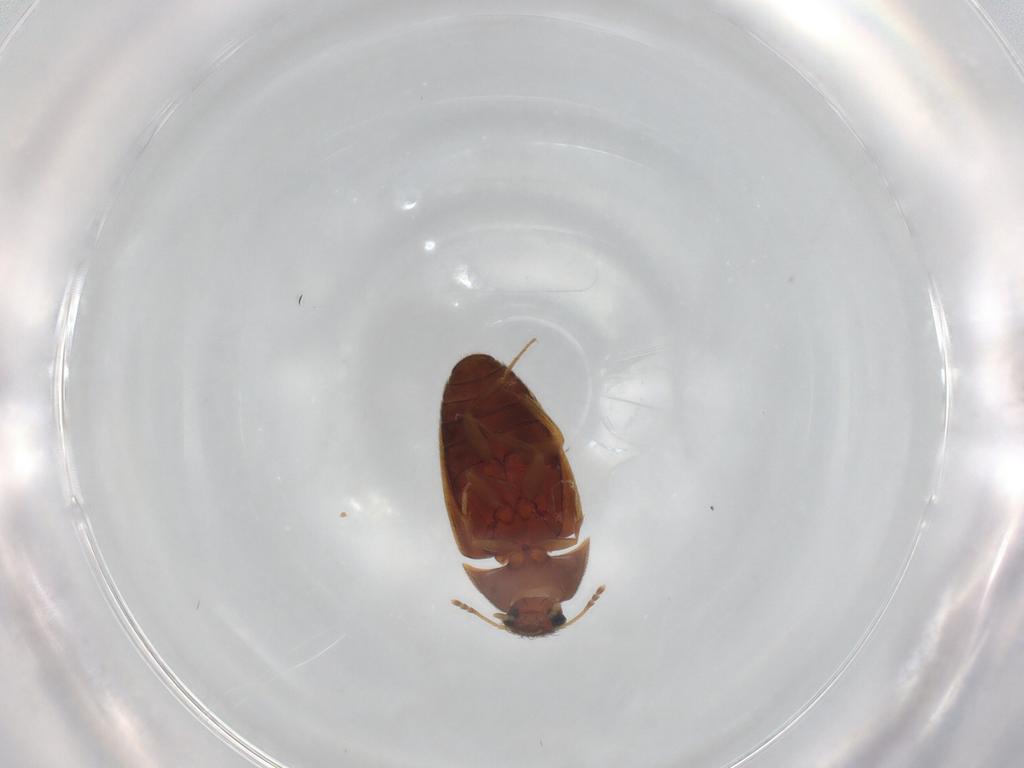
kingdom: Animalia
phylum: Arthropoda
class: Insecta
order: Coleoptera
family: Mycetophagidae
